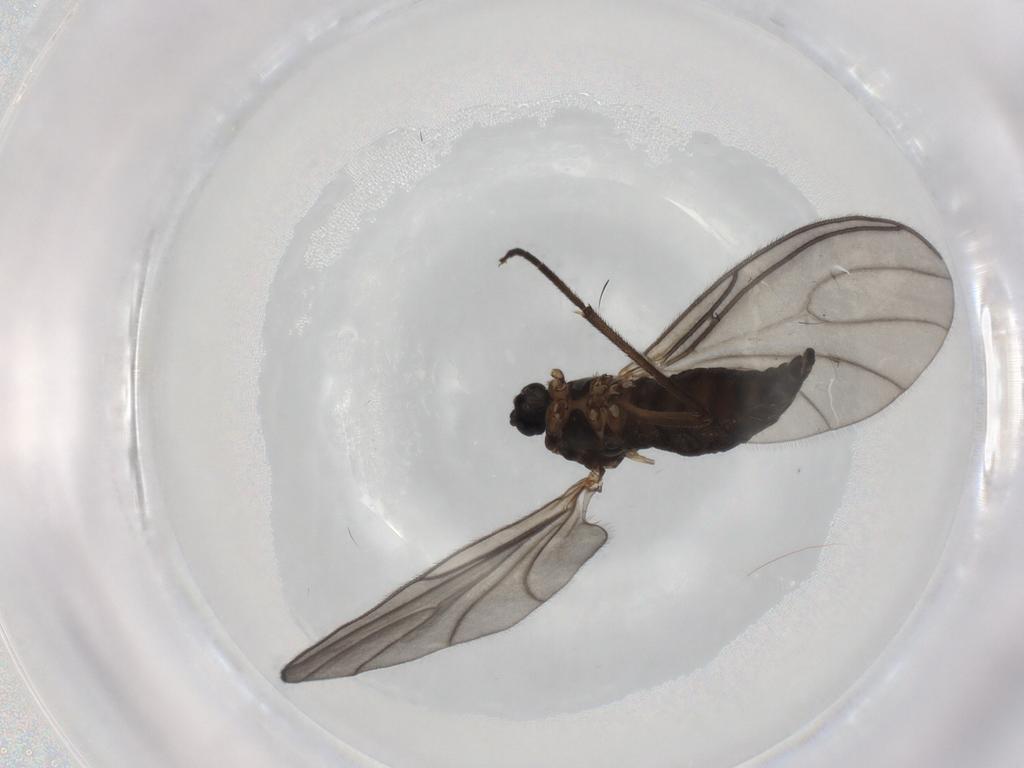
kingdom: Animalia
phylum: Arthropoda
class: Insecta
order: Diptera
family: Sciaridae
